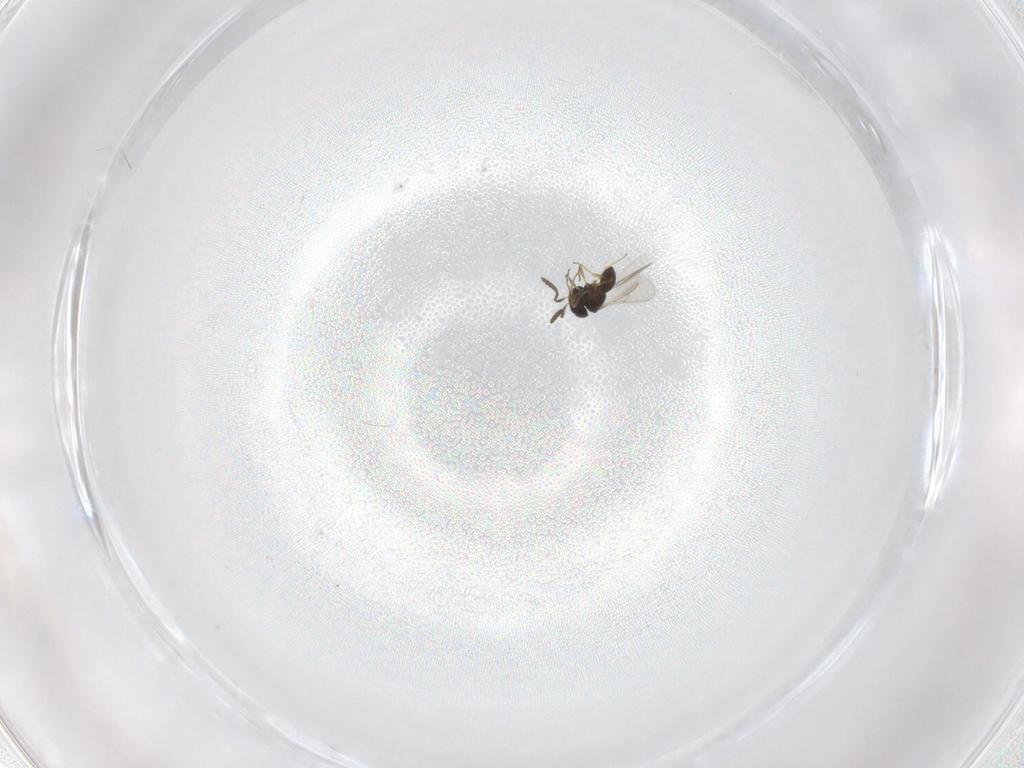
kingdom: Animalia
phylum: Arthropoda
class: Insecta
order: Hymenoptera
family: Scelionidae
